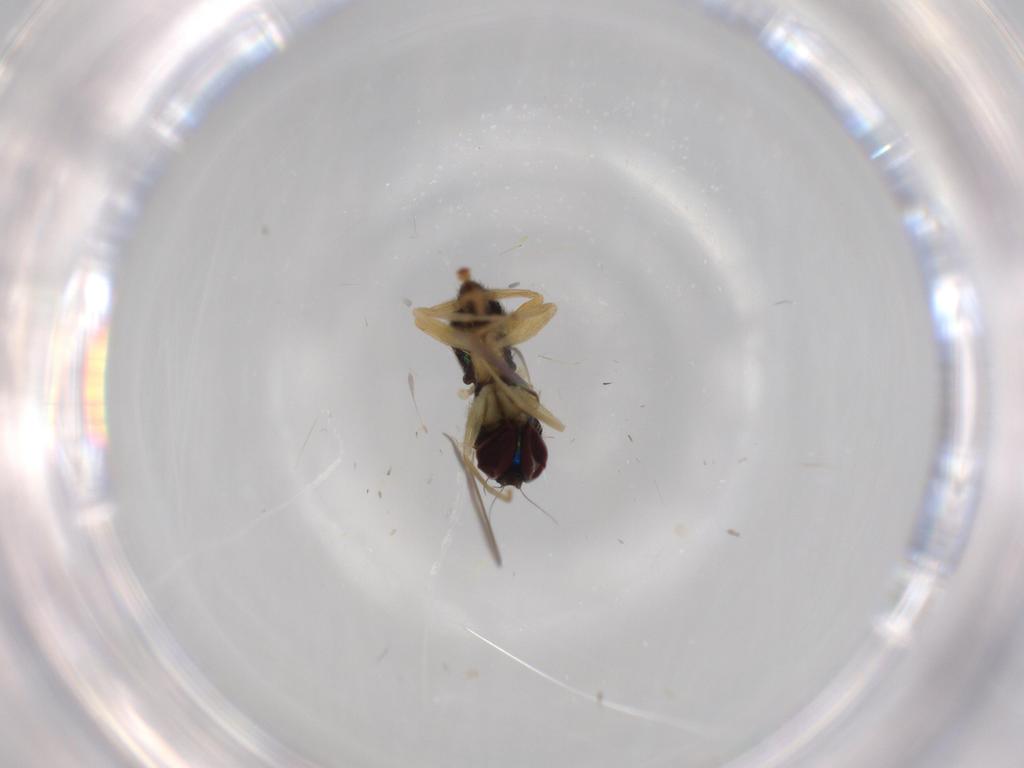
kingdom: Animalia
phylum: Arthropoda
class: Insecta
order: Diptera
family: Dolichopodidae
